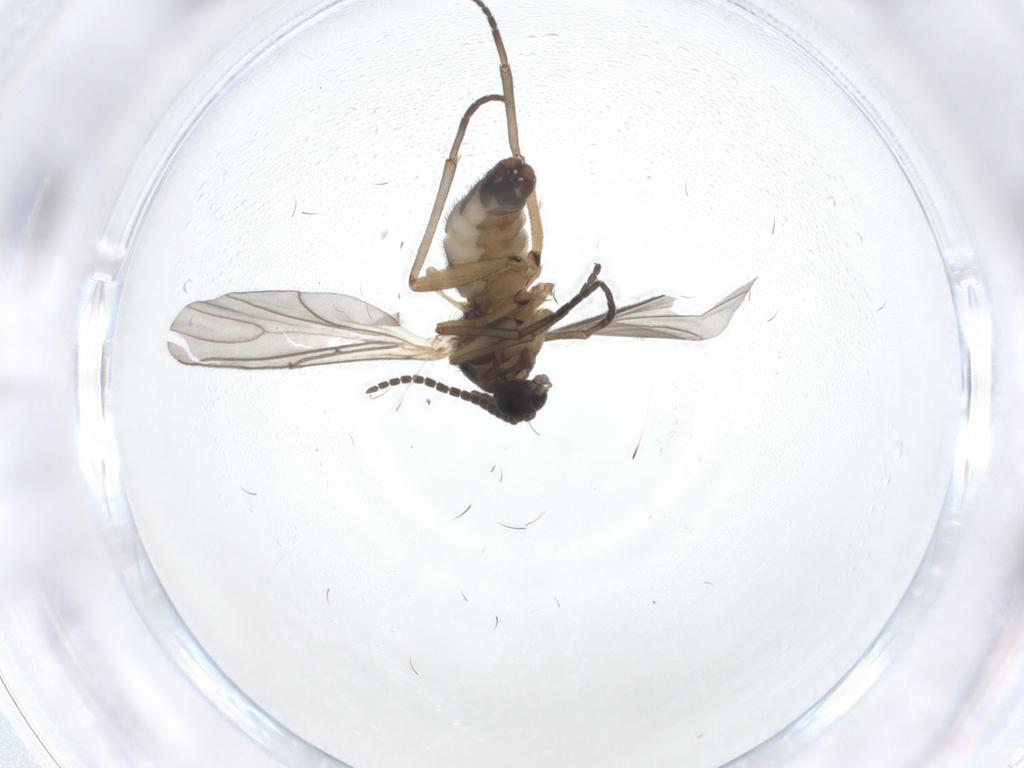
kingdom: Animalia
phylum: Arthropoda
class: Insecta
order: Diptera
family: Sciaridae
